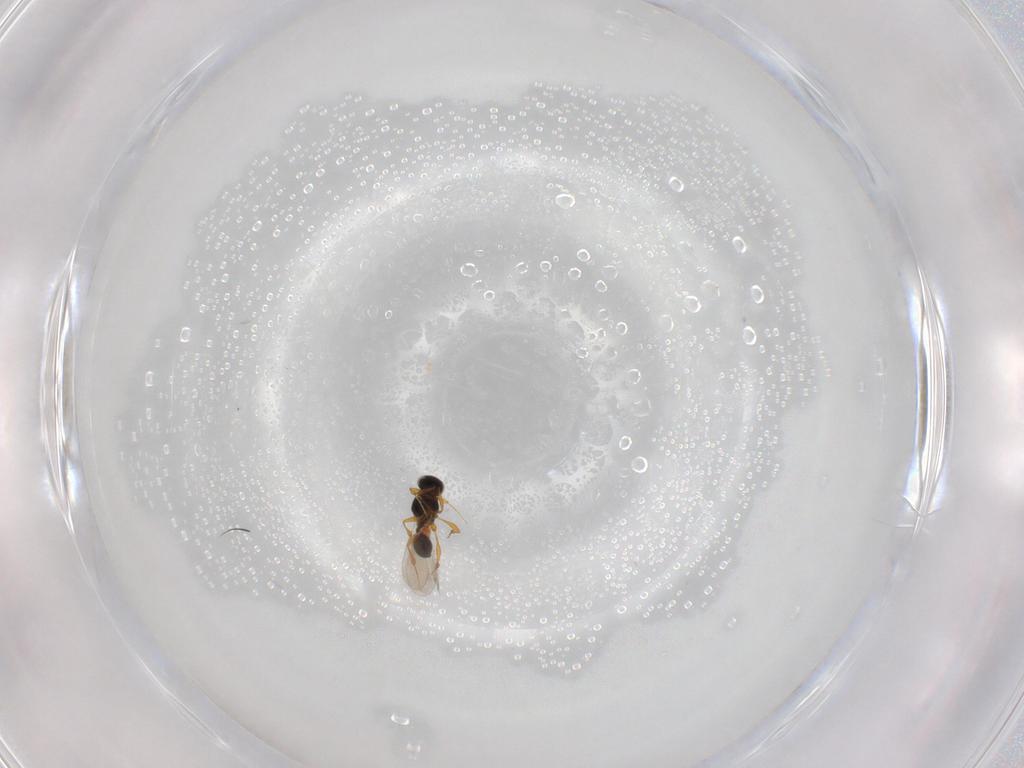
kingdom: Animalia
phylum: Arthropoda
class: Insecta
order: Hymenoptera
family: Platygastridae
